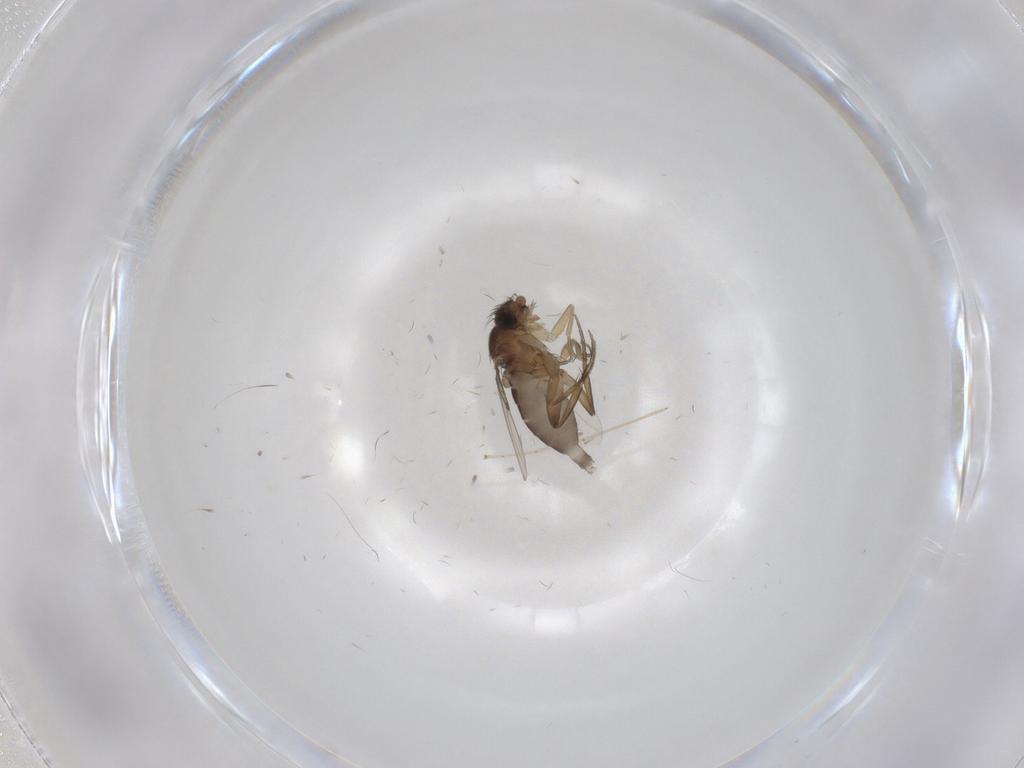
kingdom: Animalia
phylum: Arthropoda
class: Insecta
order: Diptera
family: Phoridae
